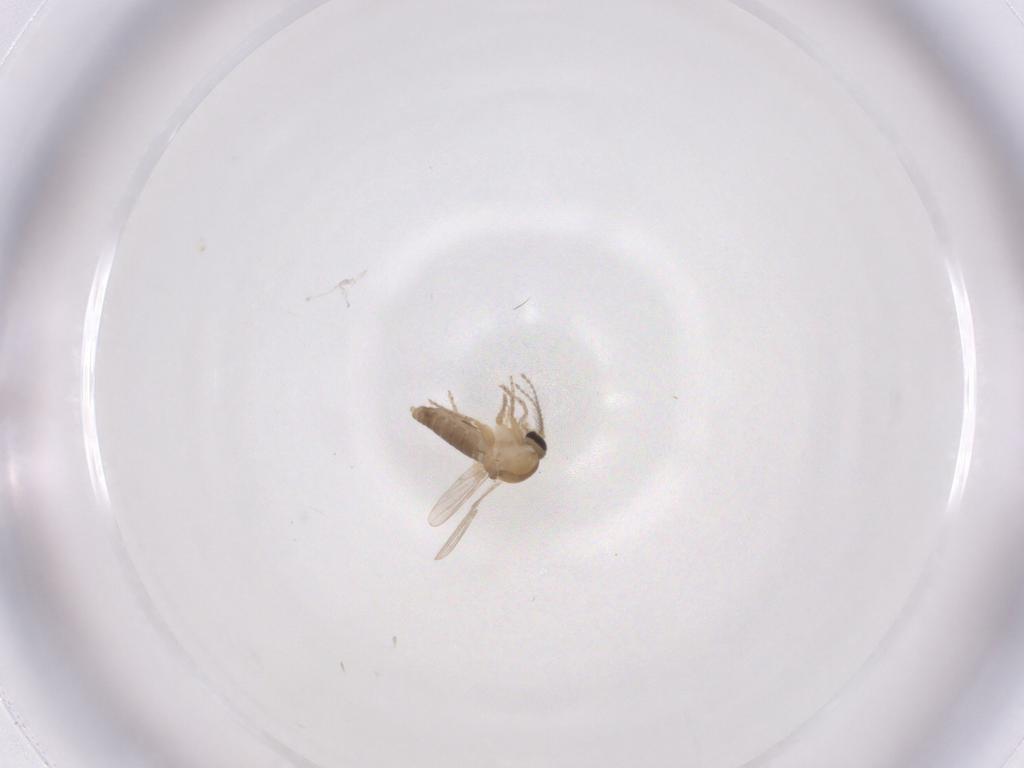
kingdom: Animalia
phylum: Arthropoda
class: Insecta
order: Diptera
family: Ceratopogonidae
